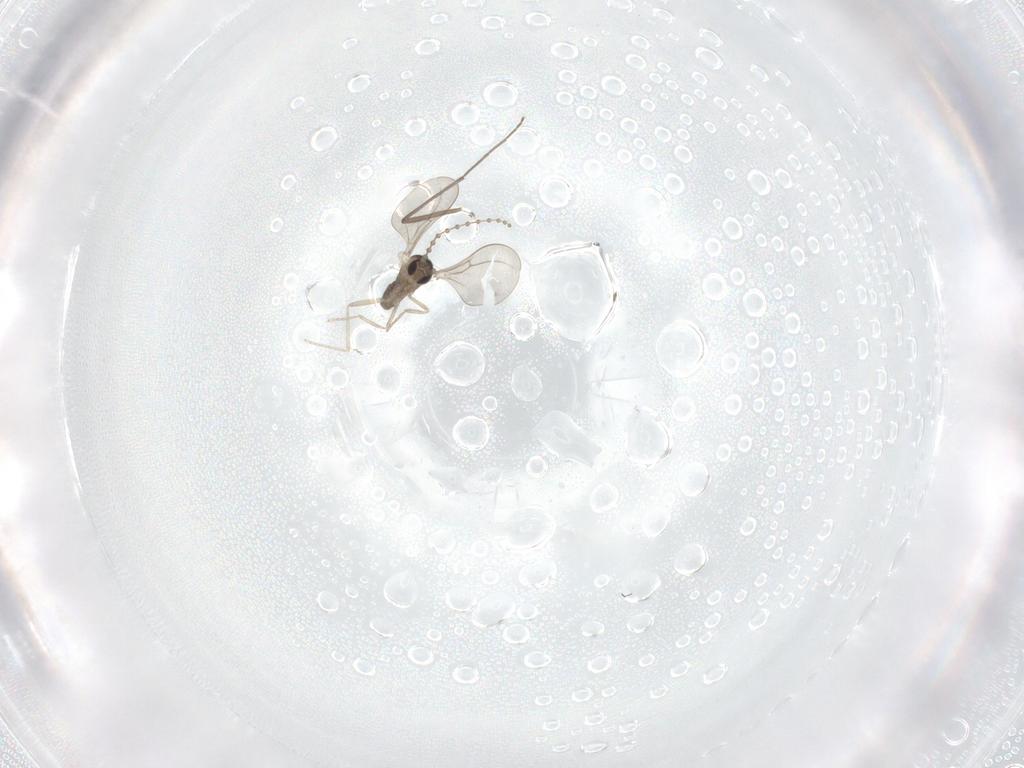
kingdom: Animalia
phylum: Arthropoda
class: Insecta
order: Diptera
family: Cecidomyiidae
